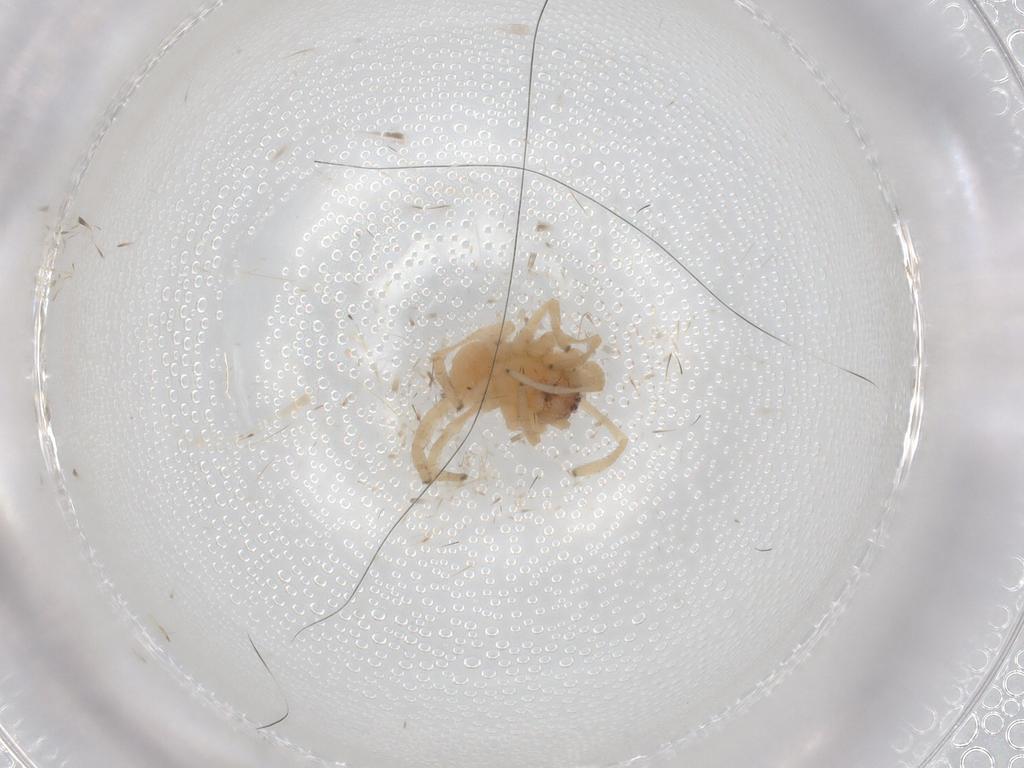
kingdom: Animalia
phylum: Arthropoda
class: Arachnida
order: Araneae
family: Cheiracanthiidae
